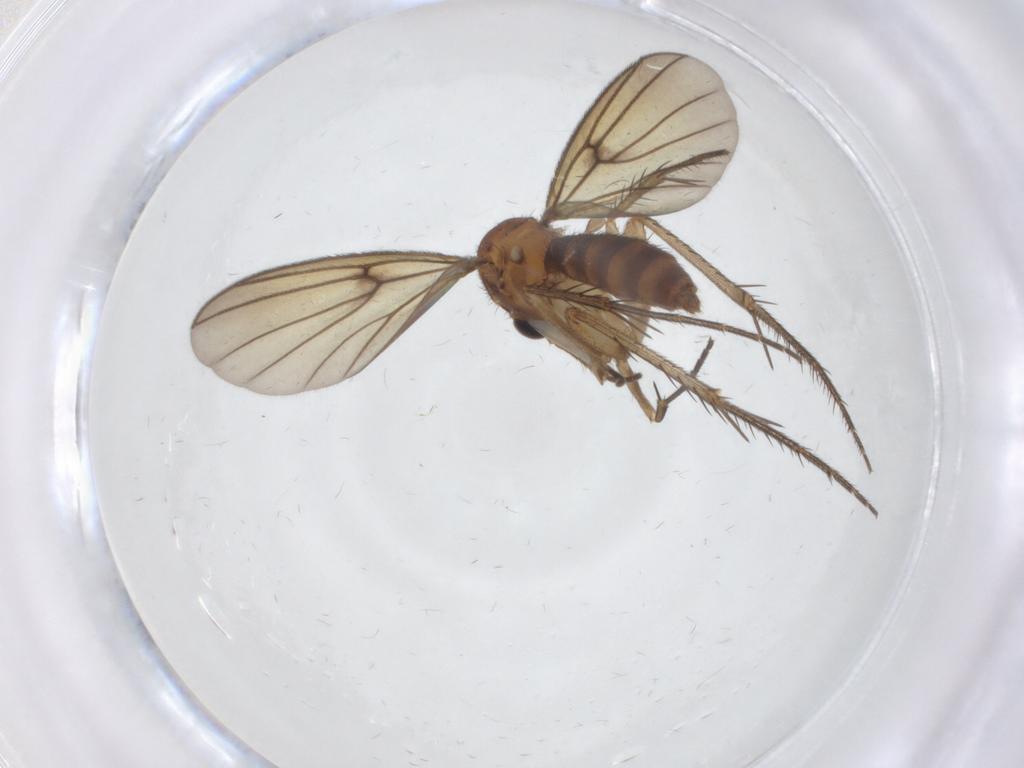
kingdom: Animalia
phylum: Arthropoda
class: Insecta
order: Diptera
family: Mycetophilidae
